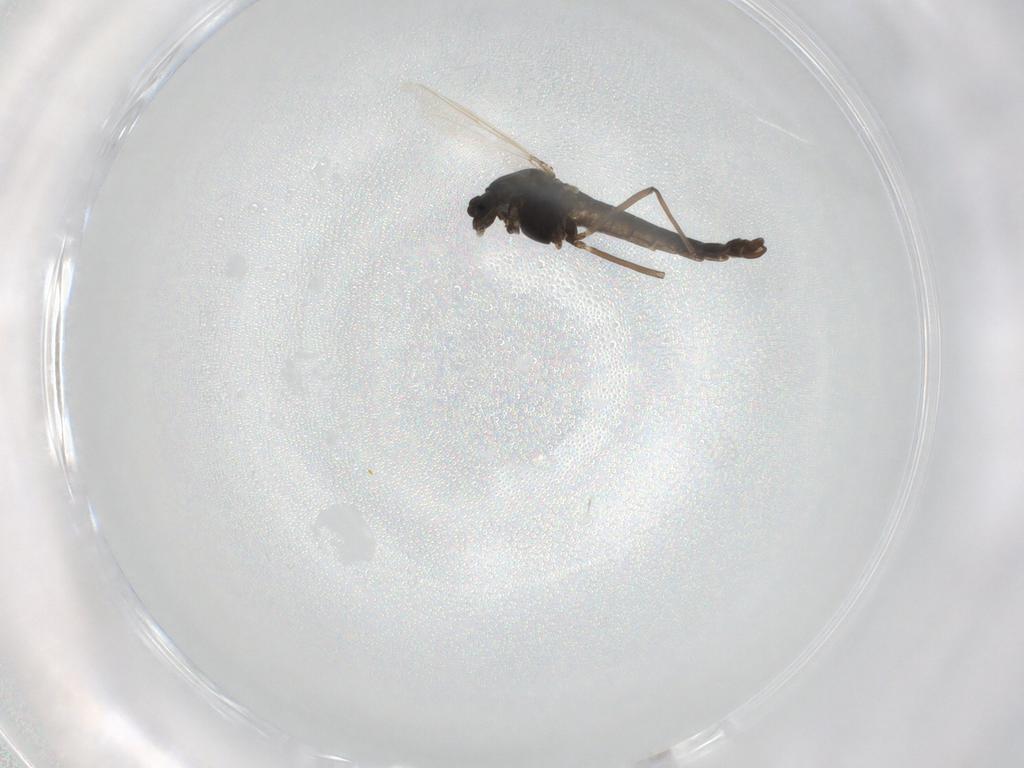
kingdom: Animalia
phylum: Arthropoda
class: Insecta
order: Diptera
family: Chironomidae
